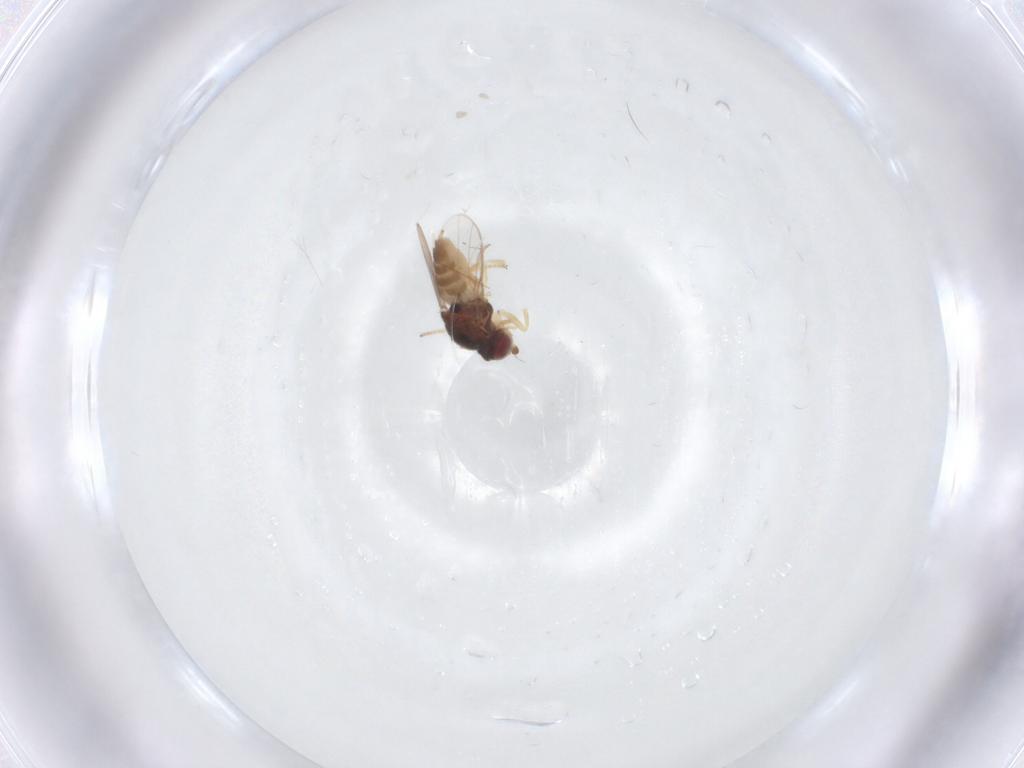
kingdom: Animalia
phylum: Arthropoda
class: Insecta
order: Diptera
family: Chloropidae
